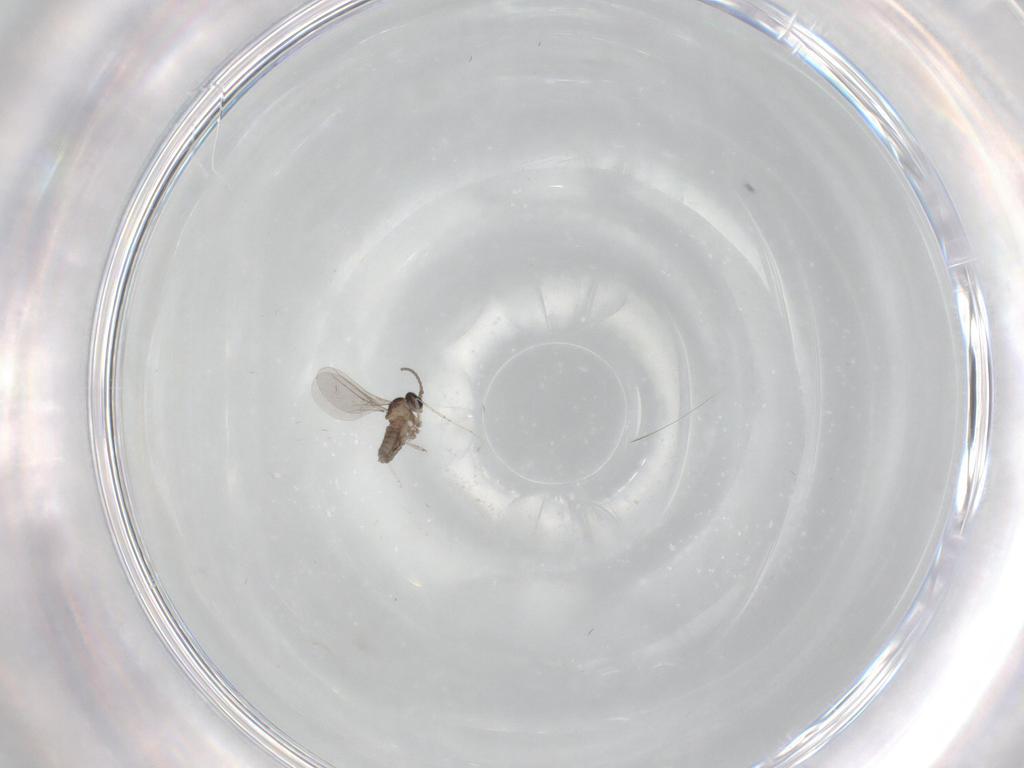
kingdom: Animalia
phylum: Arthropoda
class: Insecta
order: Diptera
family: Cecidomyiidae
